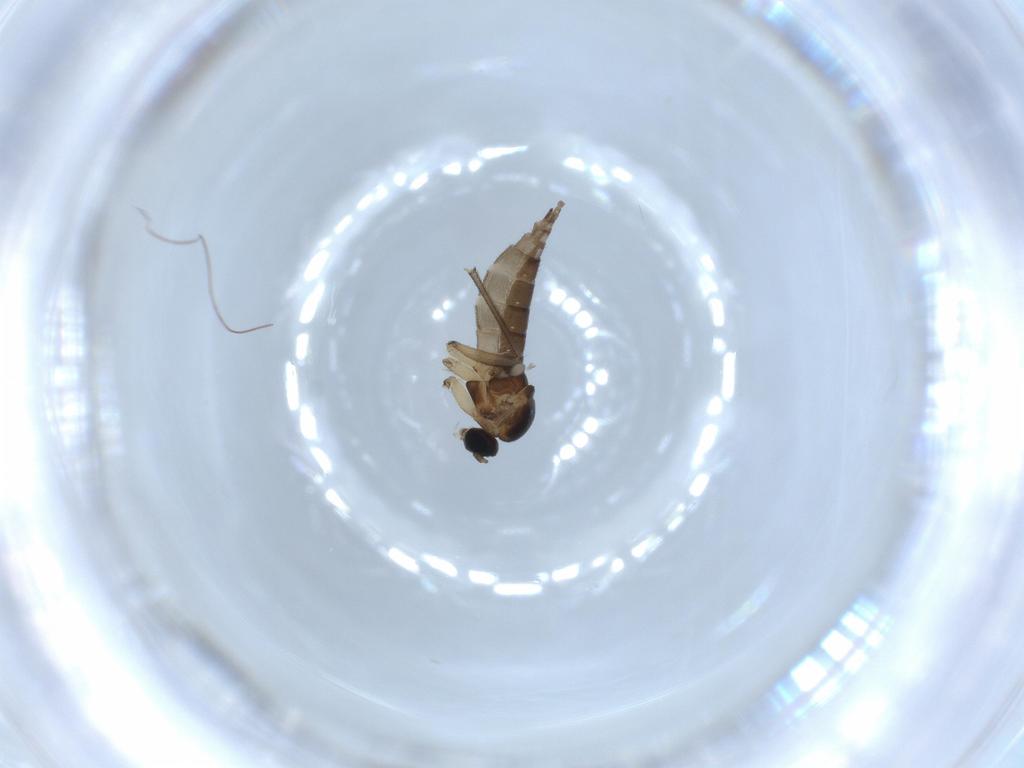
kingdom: Animalia
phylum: Arthropoda
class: Insecta
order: Diptera
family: Sciaridae
